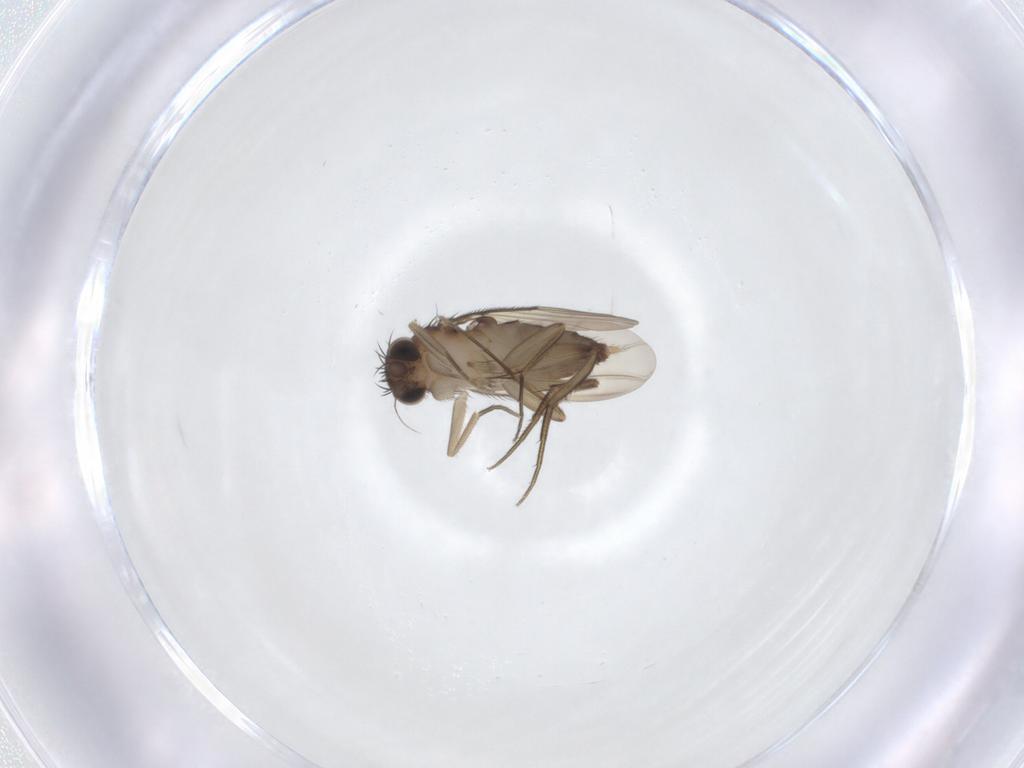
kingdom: Animalia
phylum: Arthropoda
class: Insecta
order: Diptera
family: Phoridae
